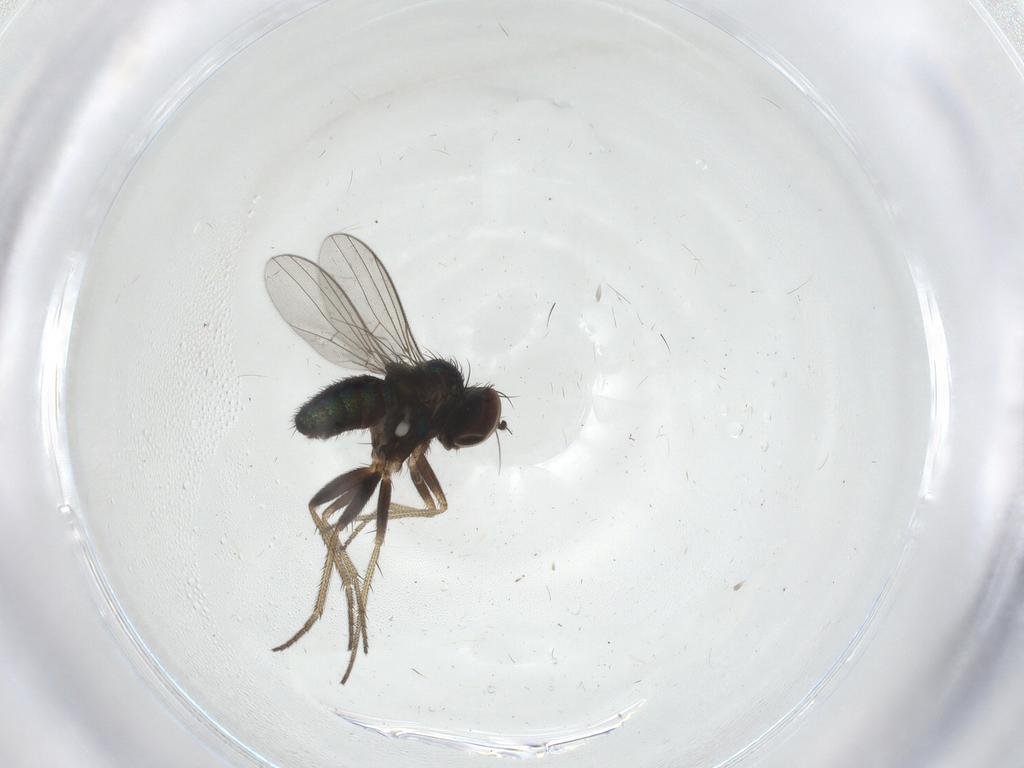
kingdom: Animalia
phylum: Arthropoda
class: Insecta
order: Diptera
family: Dolichopodidae
